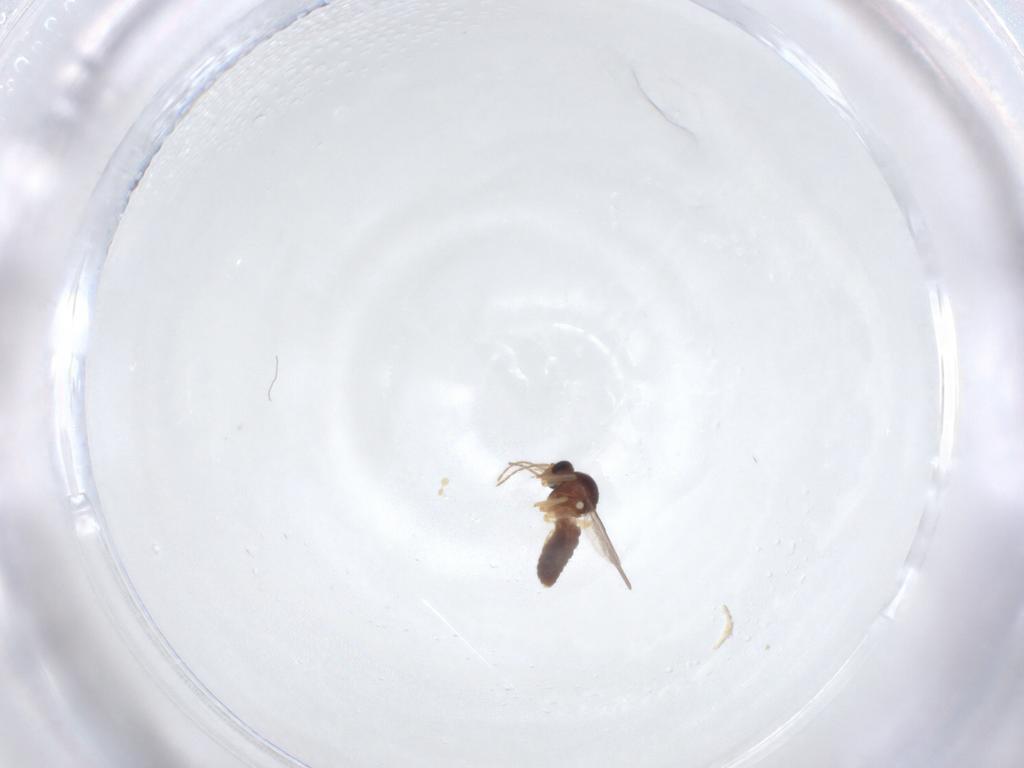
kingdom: Animalia
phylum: Arthropoda
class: Insecta
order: Diptera
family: Ceratopogonidae
